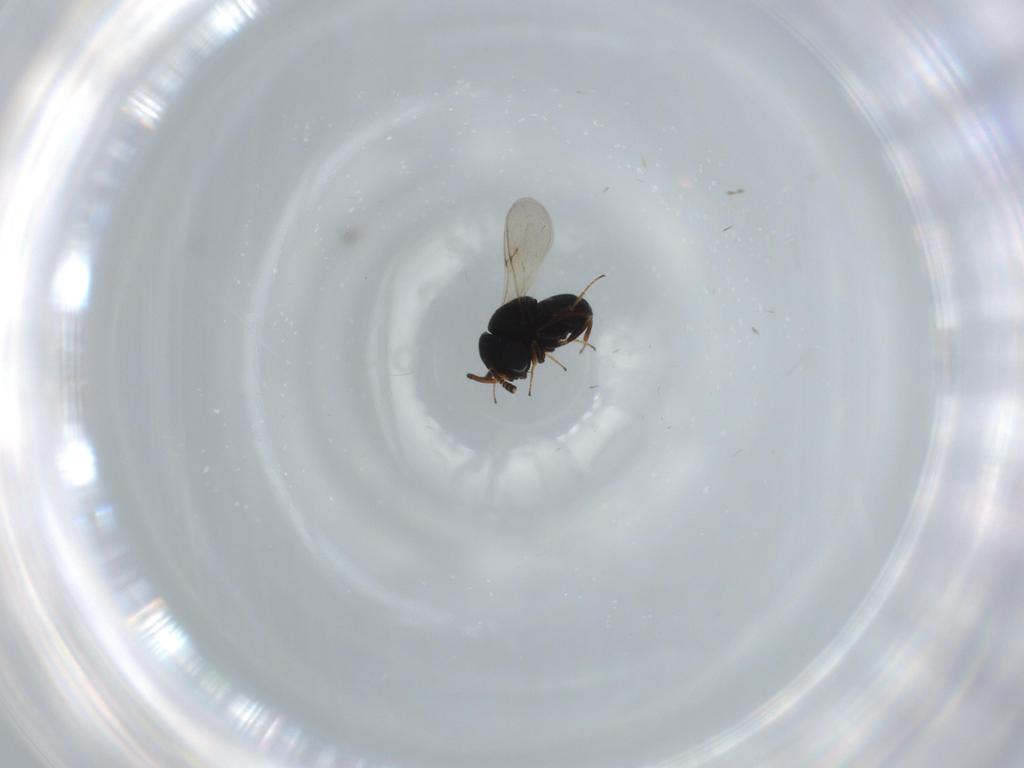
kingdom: Animalia
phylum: Arthropoda
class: Insecta
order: Hymenoptera
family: Scelionidae
